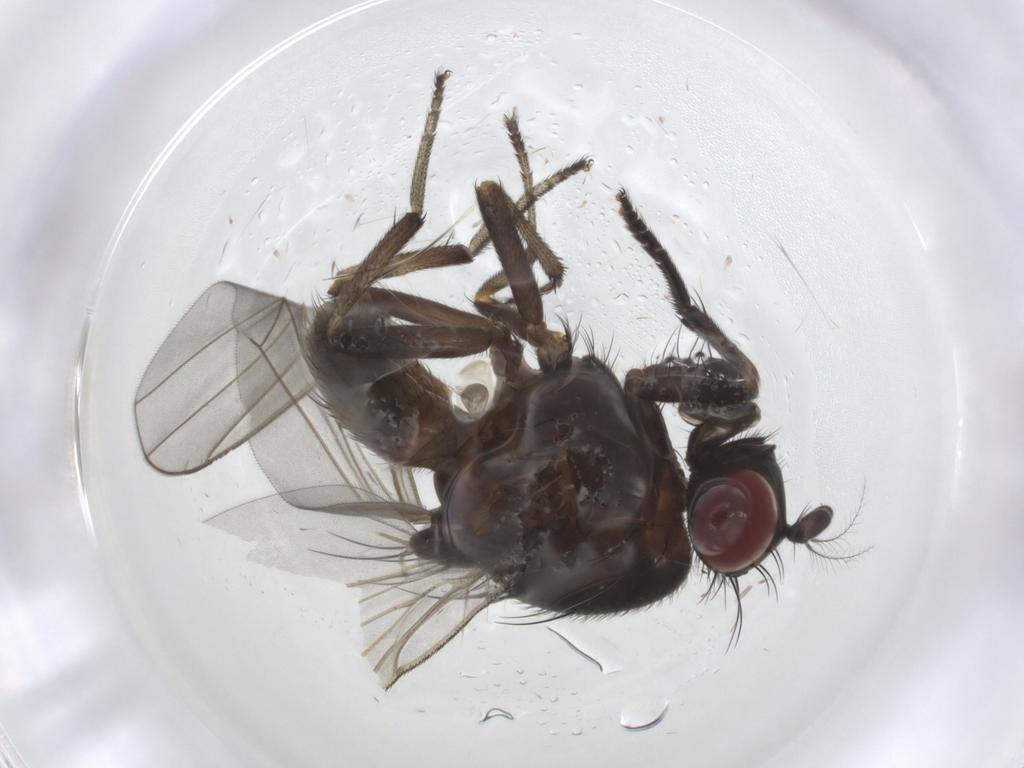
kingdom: Animalia
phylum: Arthropoda
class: Insecta
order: Diptera
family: Lauxaniidae
